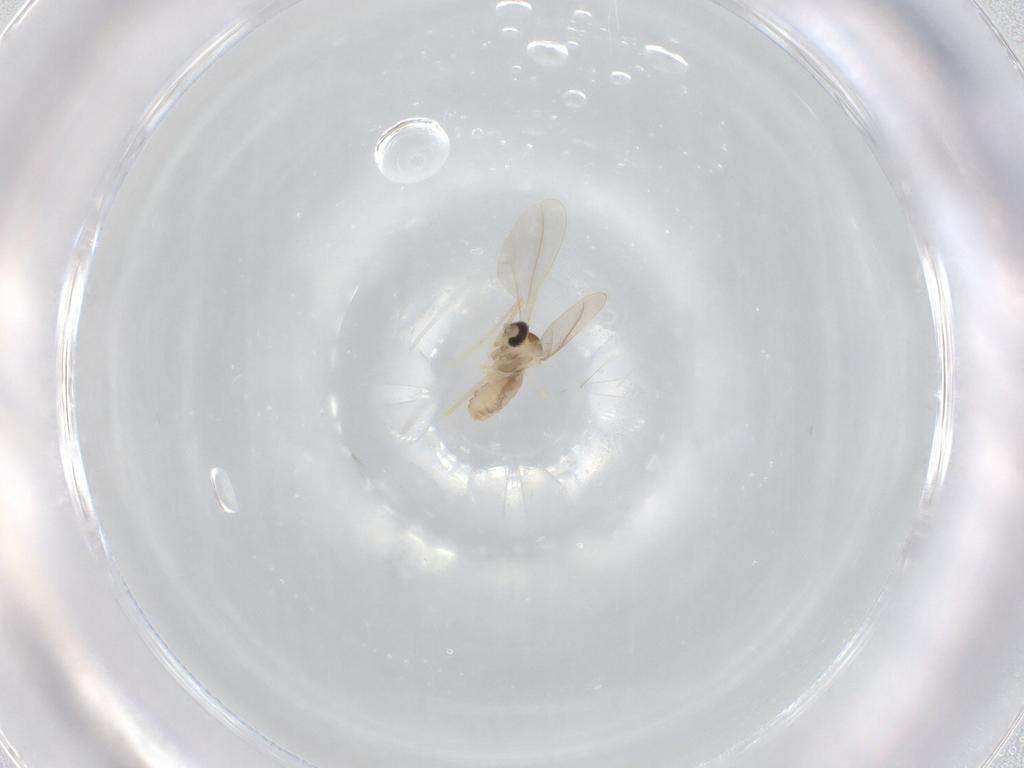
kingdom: Animalia
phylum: Arthropoda
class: Insecta
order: Diptera
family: Cecidomyiidae
